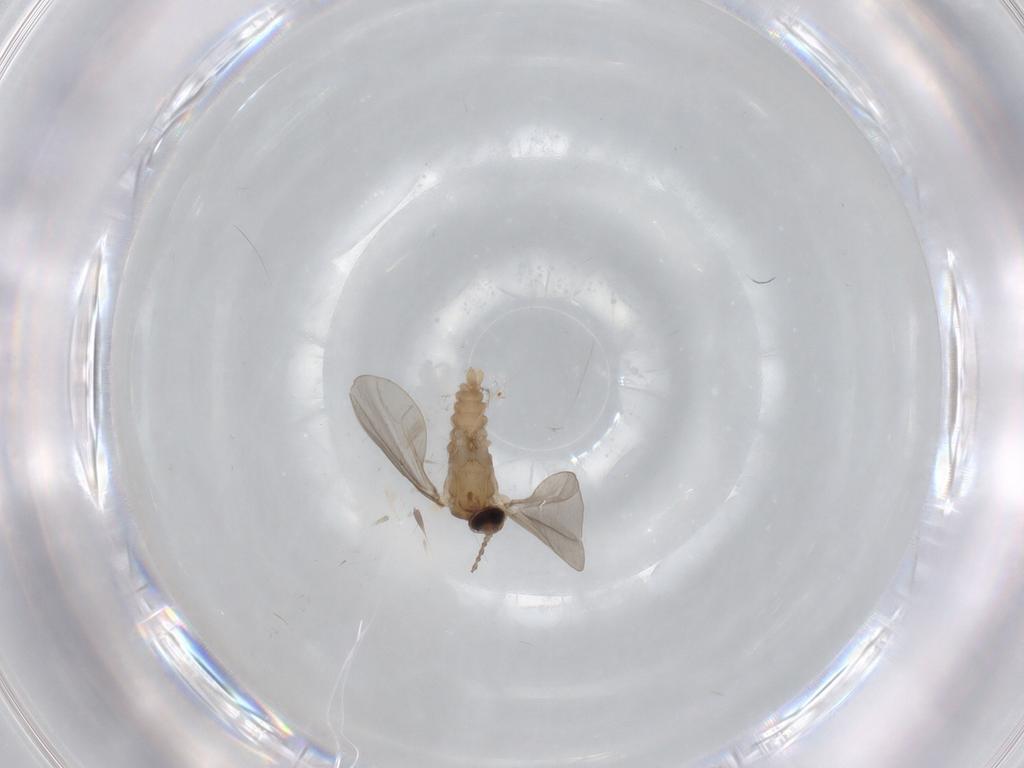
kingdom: Animalia
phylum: Arthropoda
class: Insecta
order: Diptera
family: Cecidomyiidae
